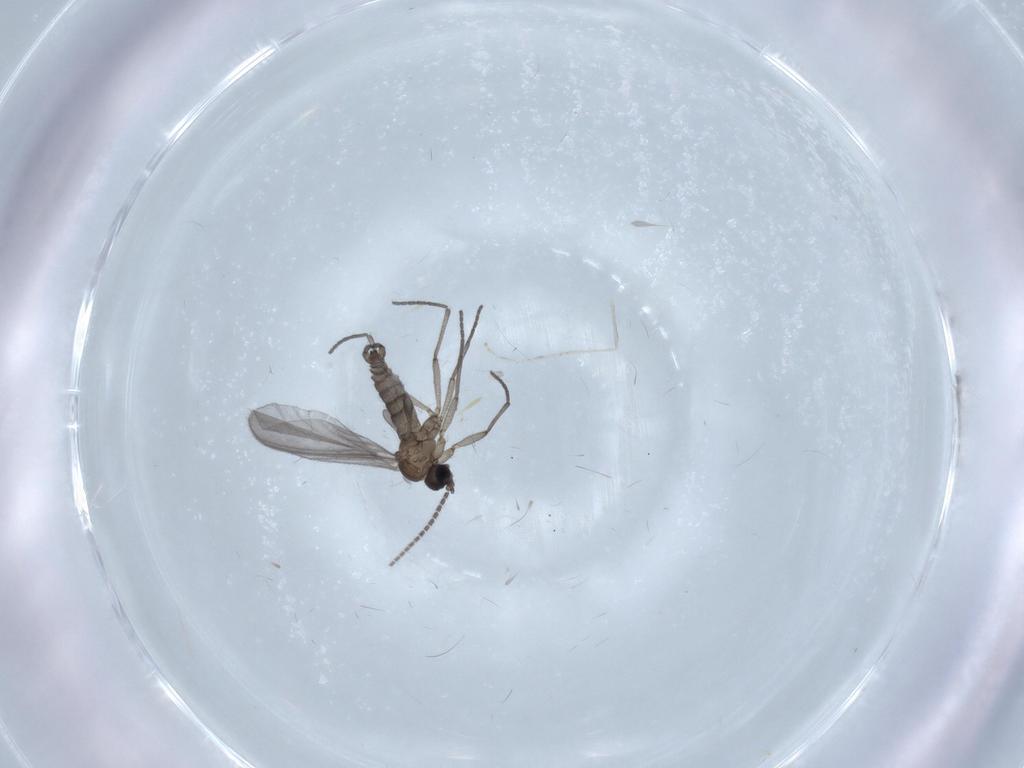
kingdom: Animalia
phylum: Arthropoda
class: Insecta
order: Diptera
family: Sciaridae
